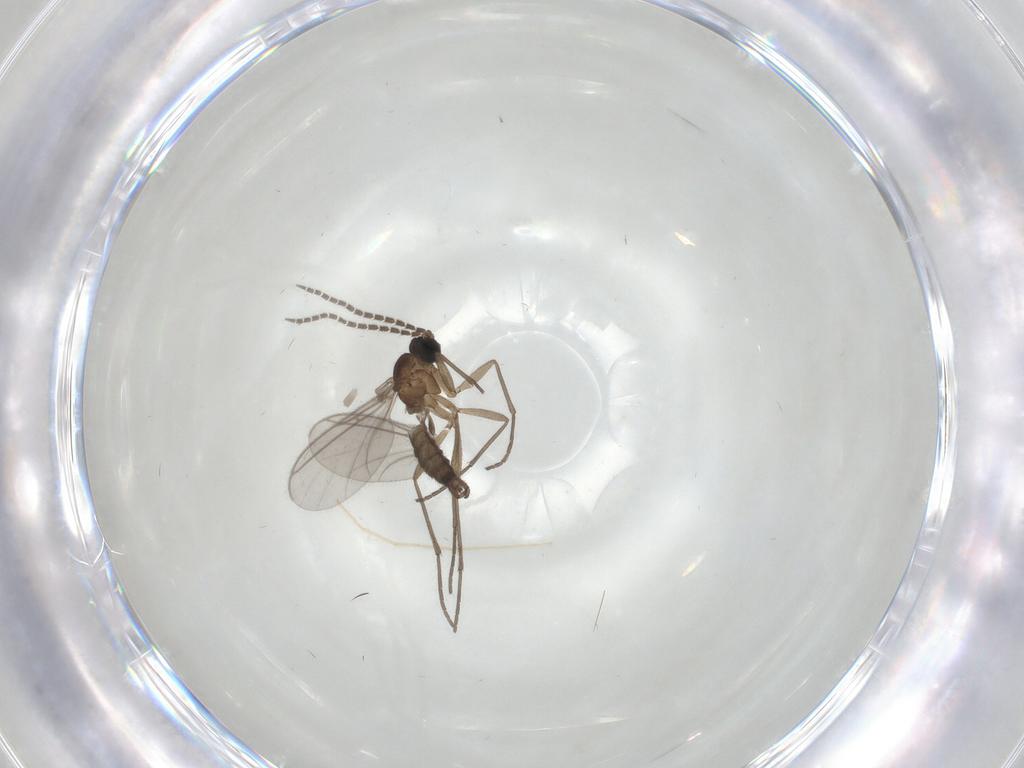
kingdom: Animalia
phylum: Arthropoda
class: Insecta
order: Diptera
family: Sciaridae
